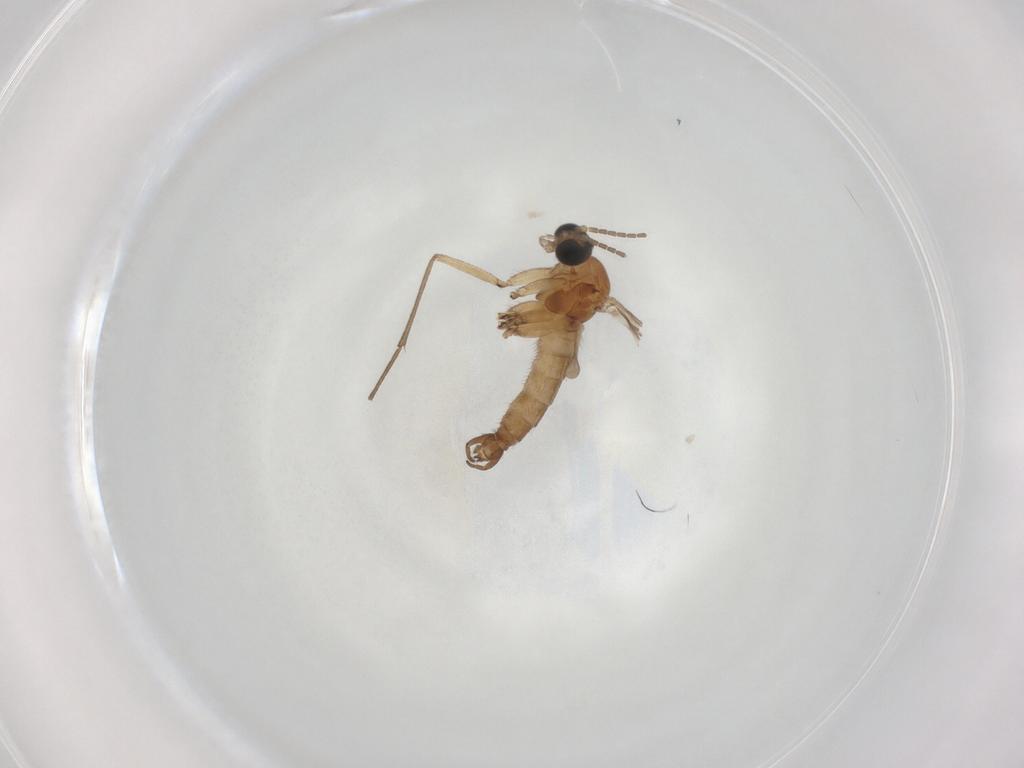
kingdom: Animalia
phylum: Arthropoda
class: Insecta
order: Diptera
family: Sciaridae
